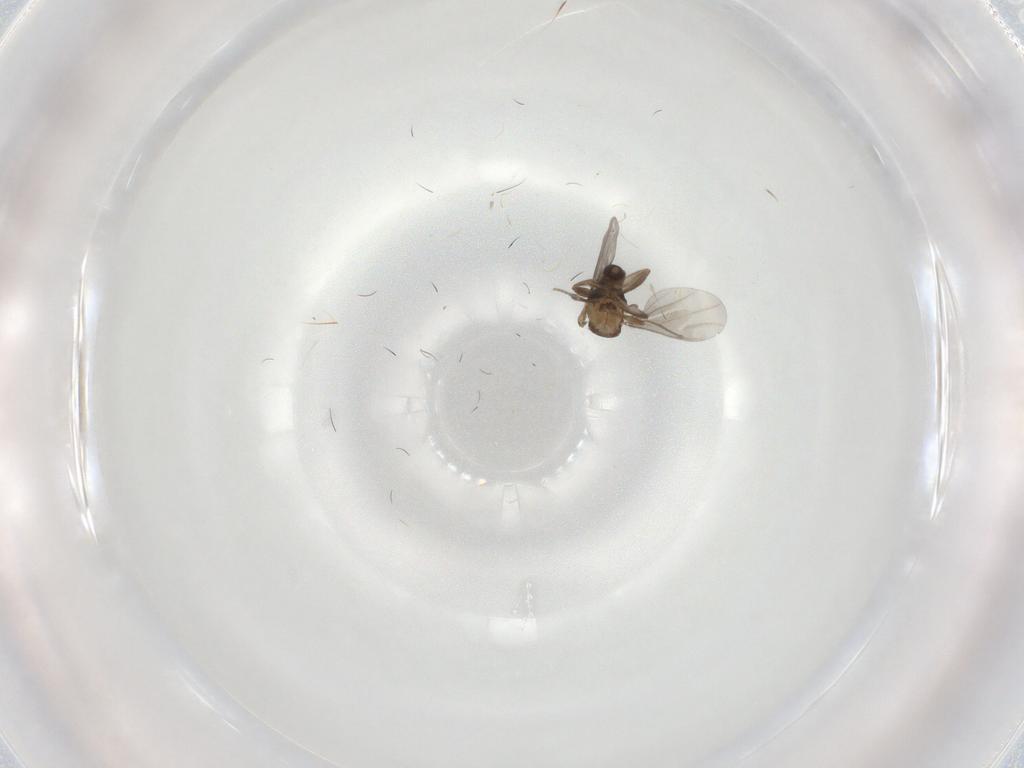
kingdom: Animalia
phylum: Arthropoda
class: Insecta
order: Diptera
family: Phoridae
